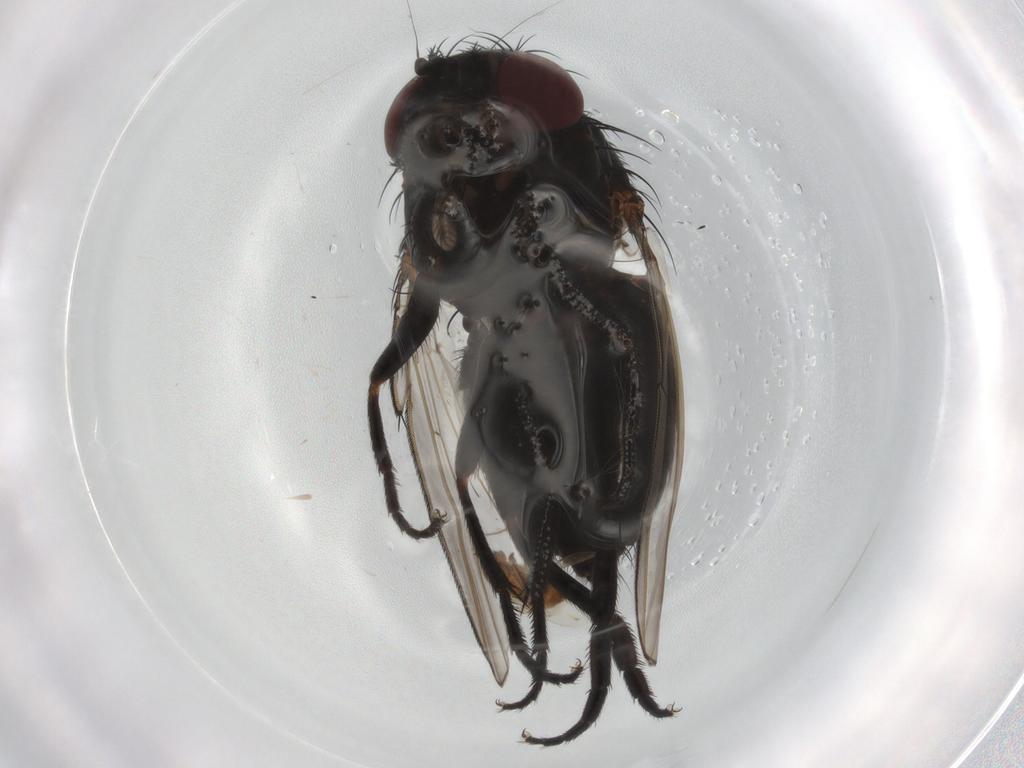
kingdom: Animalia
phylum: Arthropoda
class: Insecta
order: Diptera
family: Milichiidae
